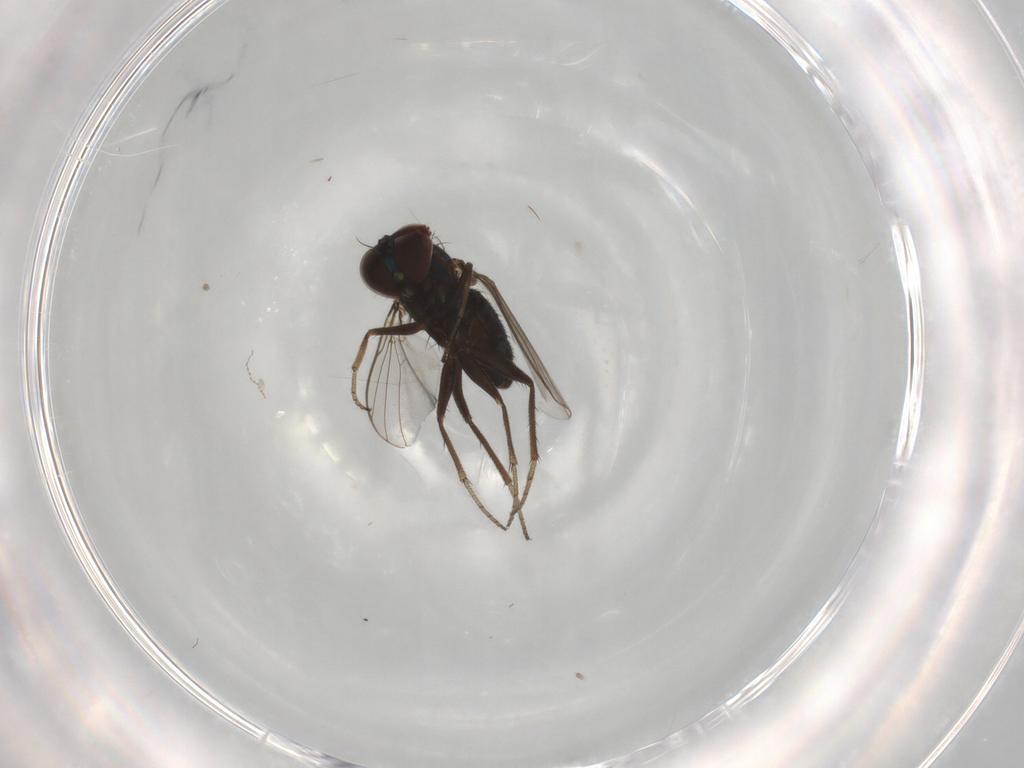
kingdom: Animalia
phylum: Arthropoda
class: Insecta
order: Diptera
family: Dolichopodidae
